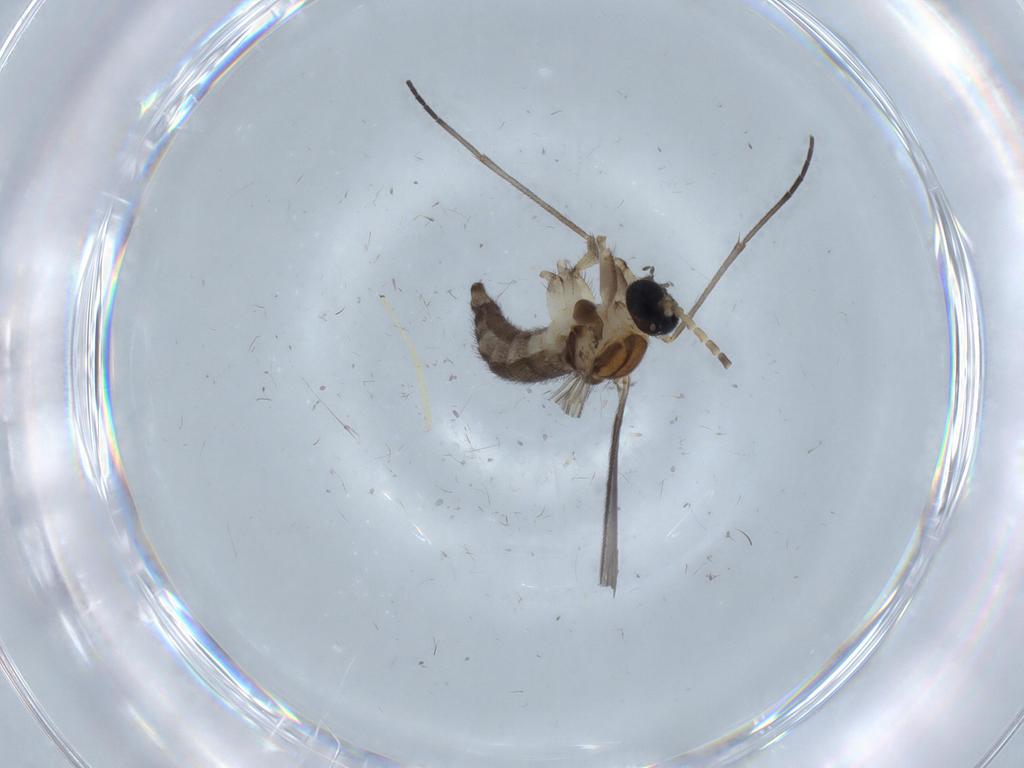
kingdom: Animalia
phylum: Arthropoda
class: Insecta
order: Diptera
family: Sciaridae
